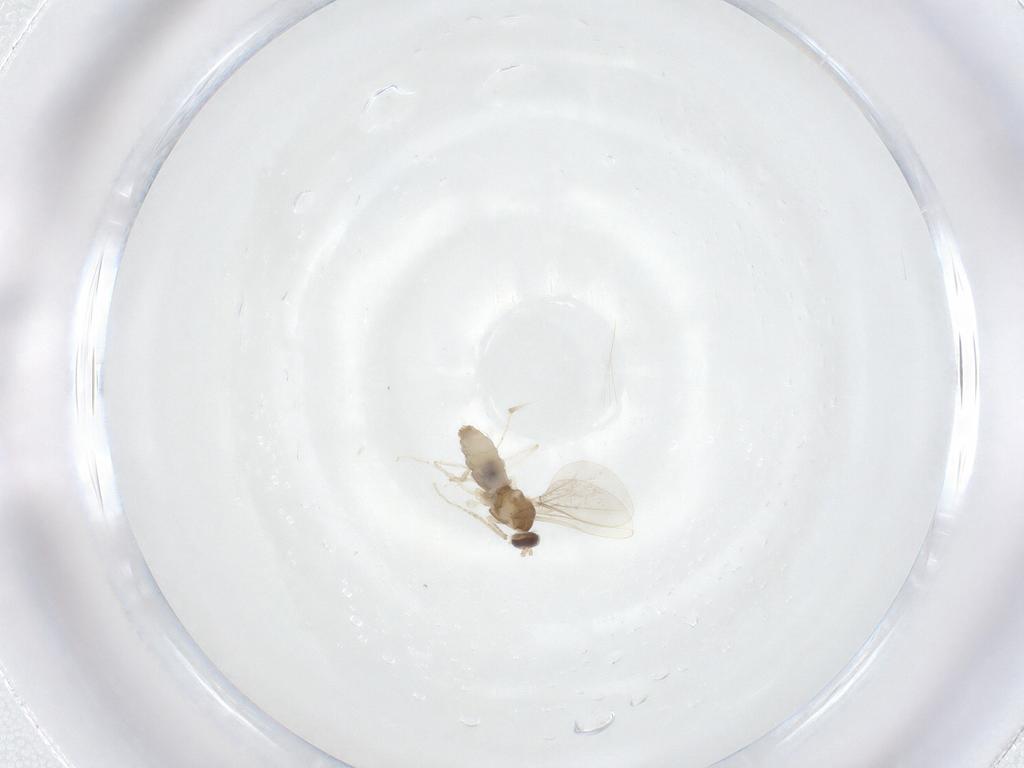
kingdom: Animalia
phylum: Arthropoda
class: Insecta
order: Diptera
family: Cecidomyiidae
